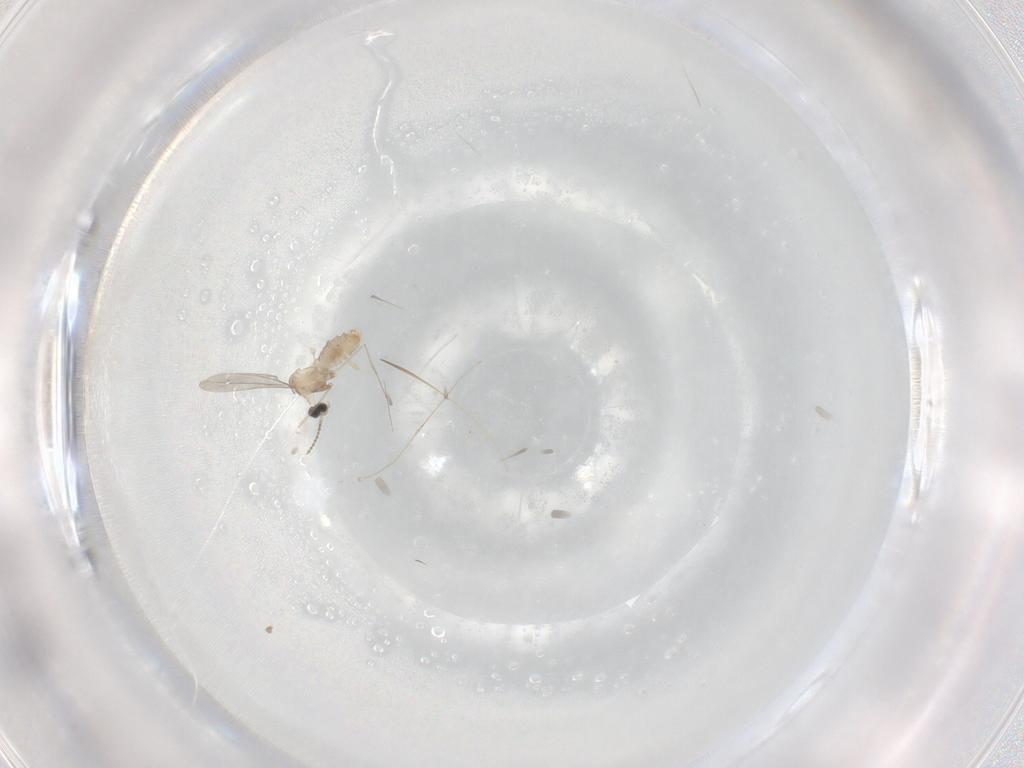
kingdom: Animalia
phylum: Arthropoda
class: Insecta
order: Diptera
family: Cecidomyiidae
